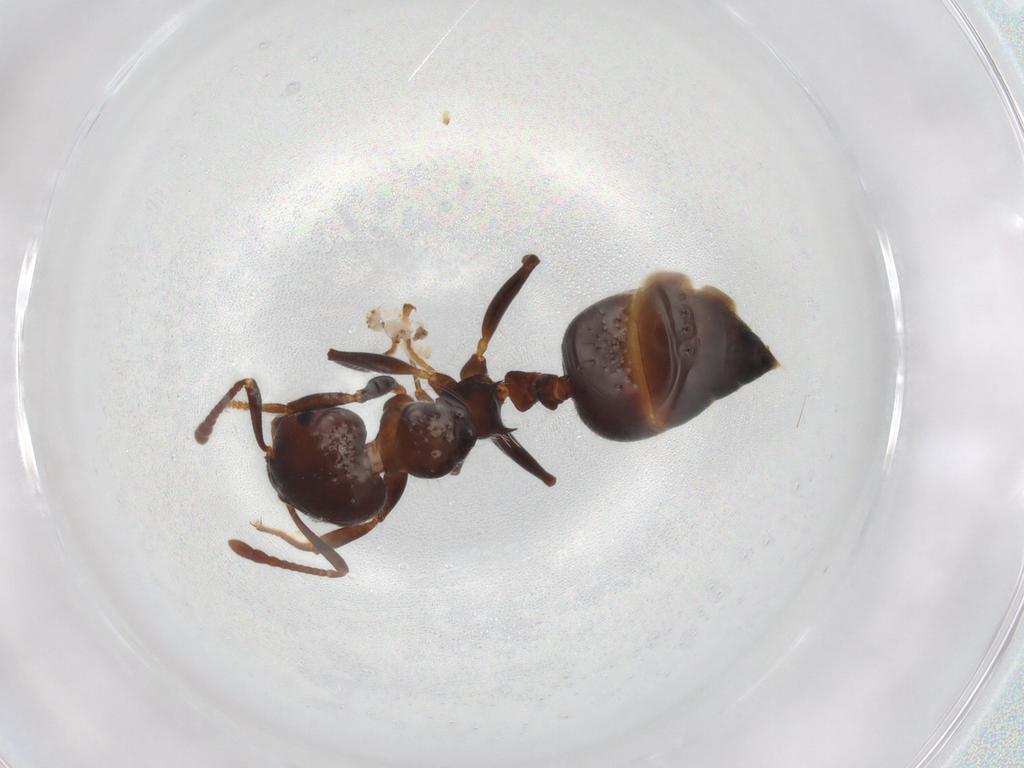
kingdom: Animalia
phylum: Arthropoda
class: Insecta
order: Hymenoptera
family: Formicidae
